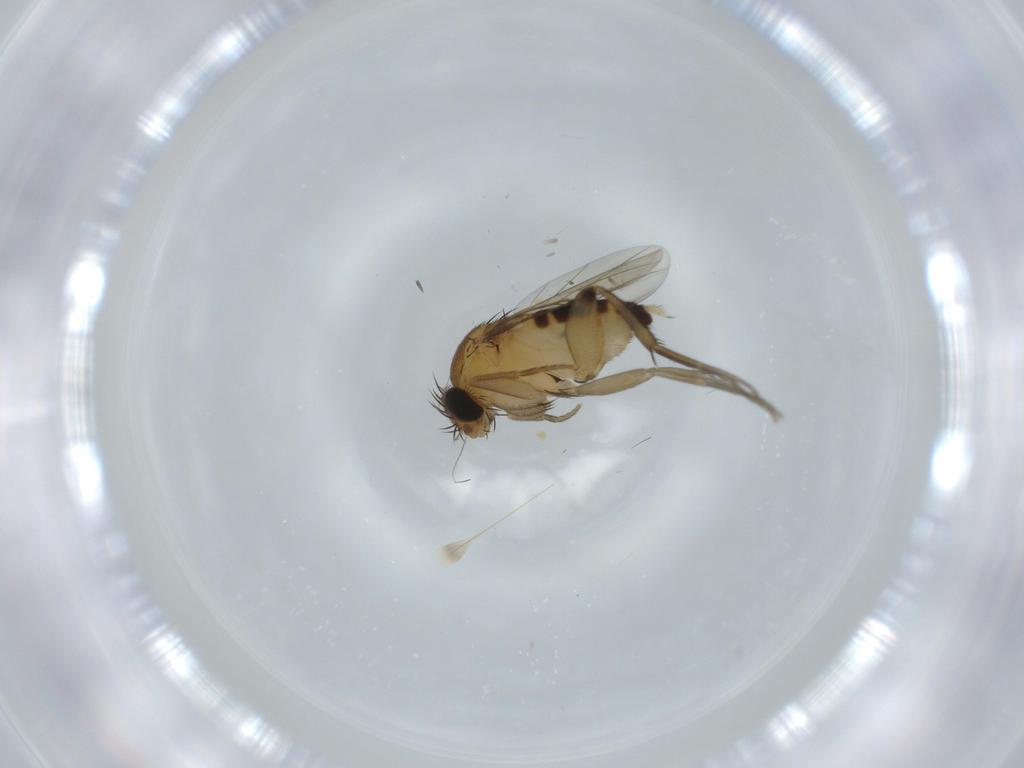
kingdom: Animalia
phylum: Arthropoda
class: Insecta
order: Diptera
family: Phoridae
